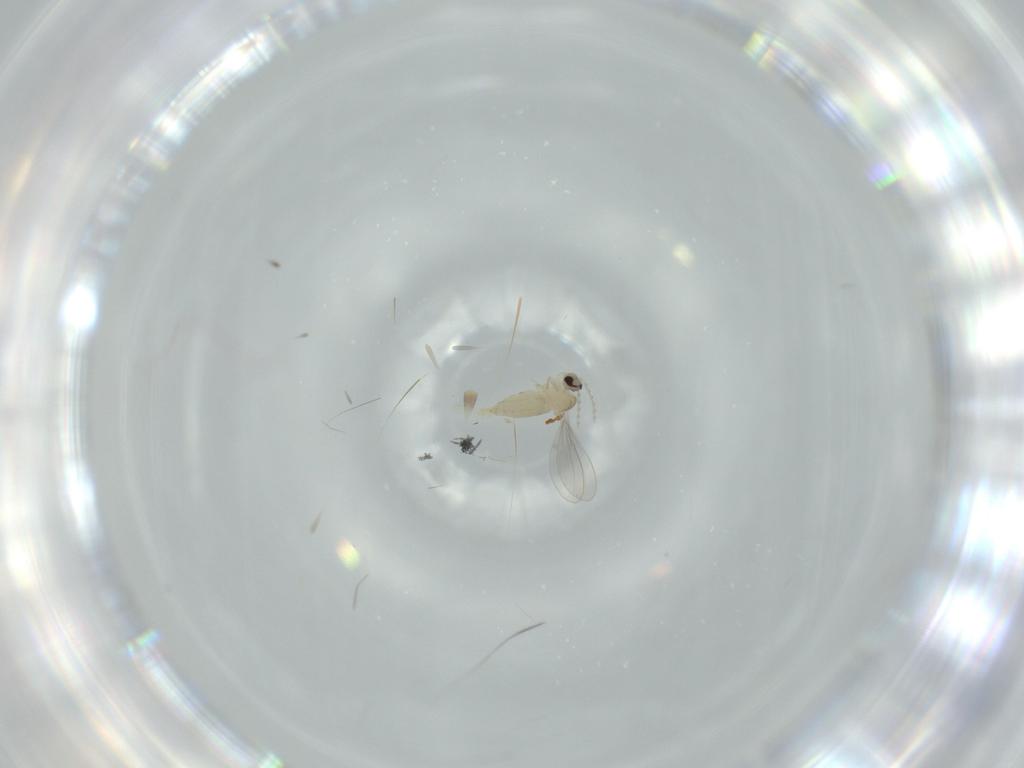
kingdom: Animalia
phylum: Arthropoda
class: Insecta
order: Diptera
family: Cecidomyiidae
